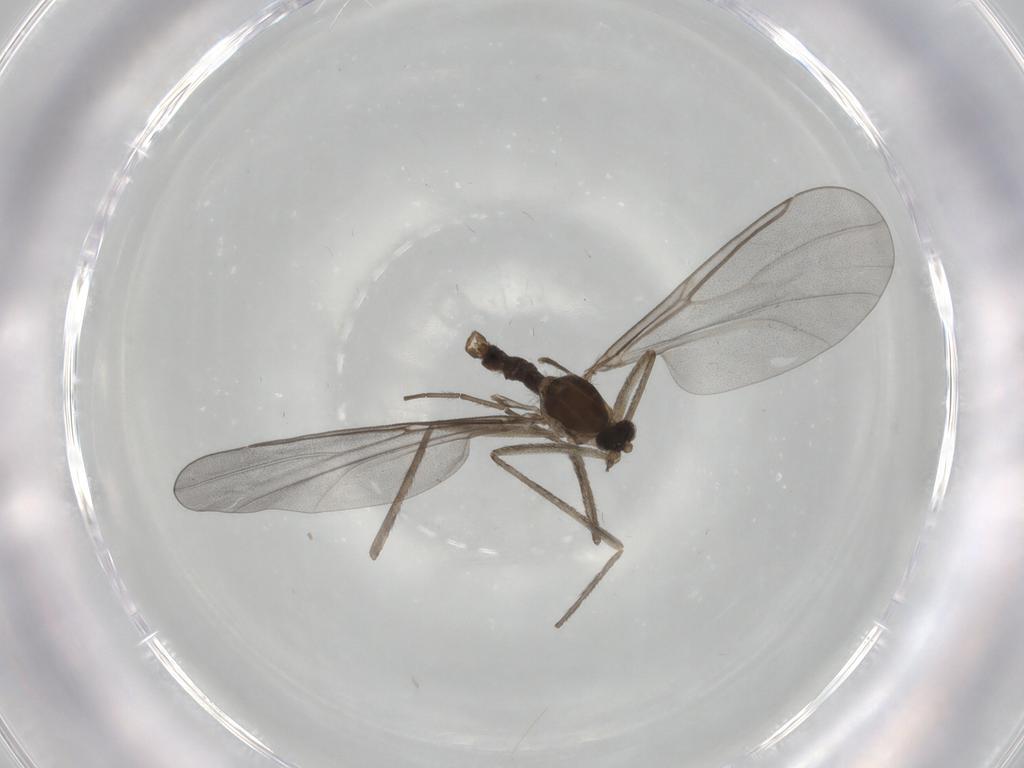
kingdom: Animalia
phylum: Arthropoda
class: Insecta
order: Diptera
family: Cecidomyiidae
